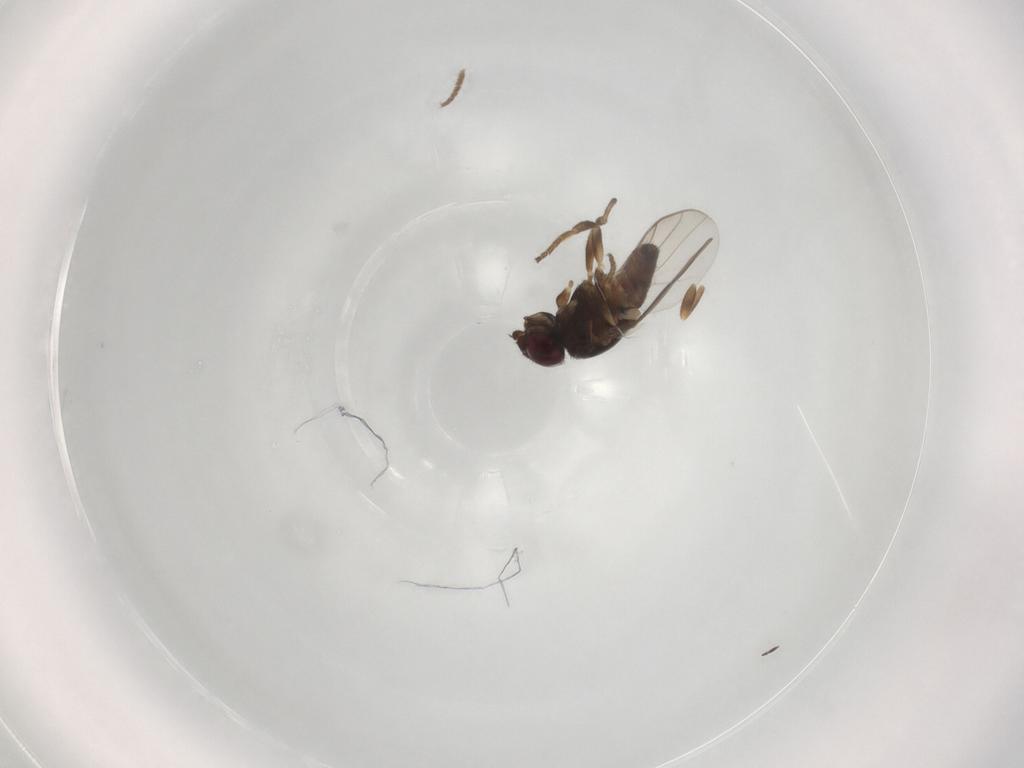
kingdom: Animalia
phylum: Arthropoda
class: Insecta
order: Diptera
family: Chloropidae
